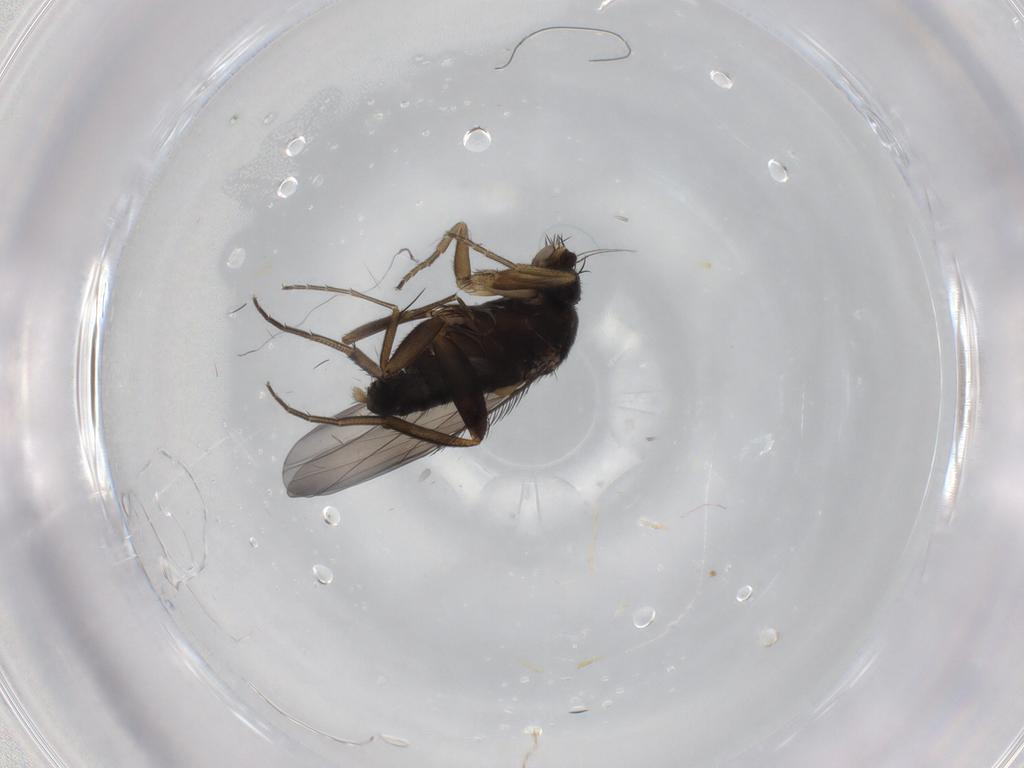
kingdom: Animalia
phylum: Arthropoda
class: Insecta
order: Diptera
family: Phoridae
